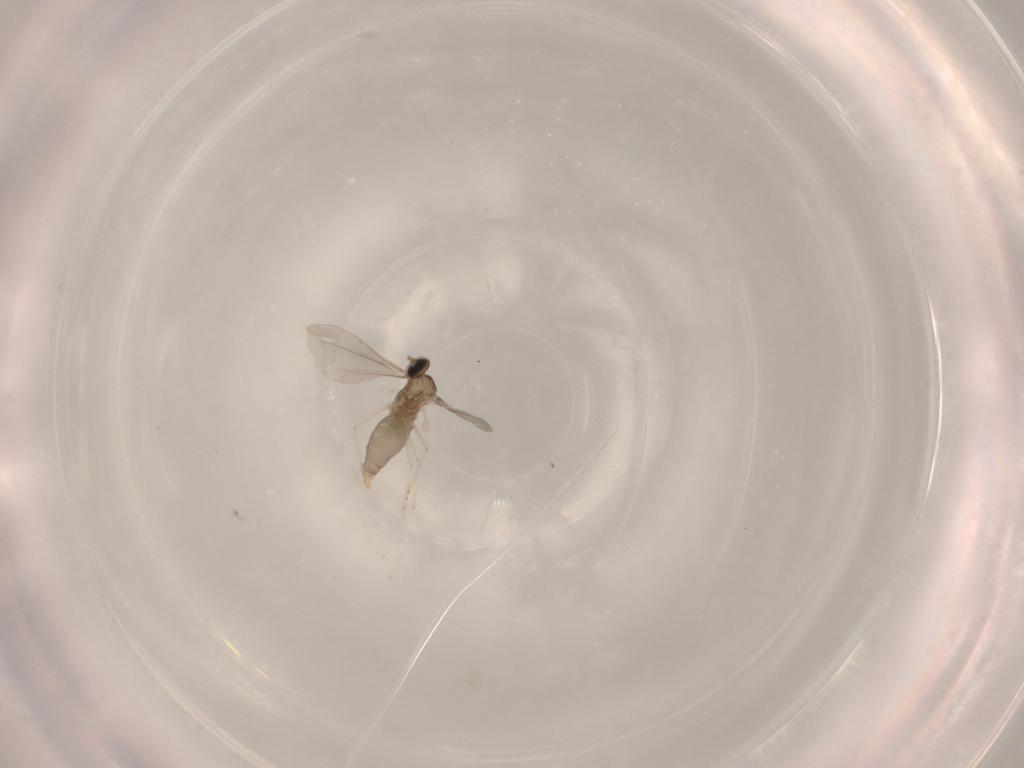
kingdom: Animalia
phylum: Arthropoda
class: Insecta
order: Diptera
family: Cecidomyiidae
